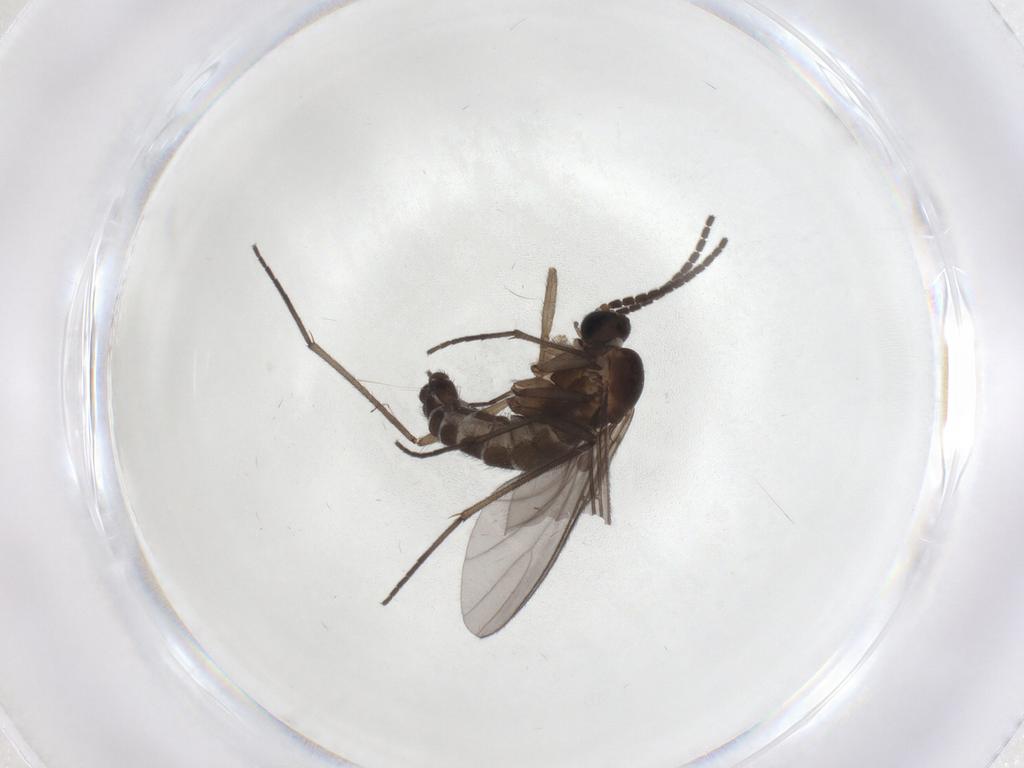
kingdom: Animalia
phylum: Arthropoda
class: Insecta
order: Diptera
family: Sciaridae
